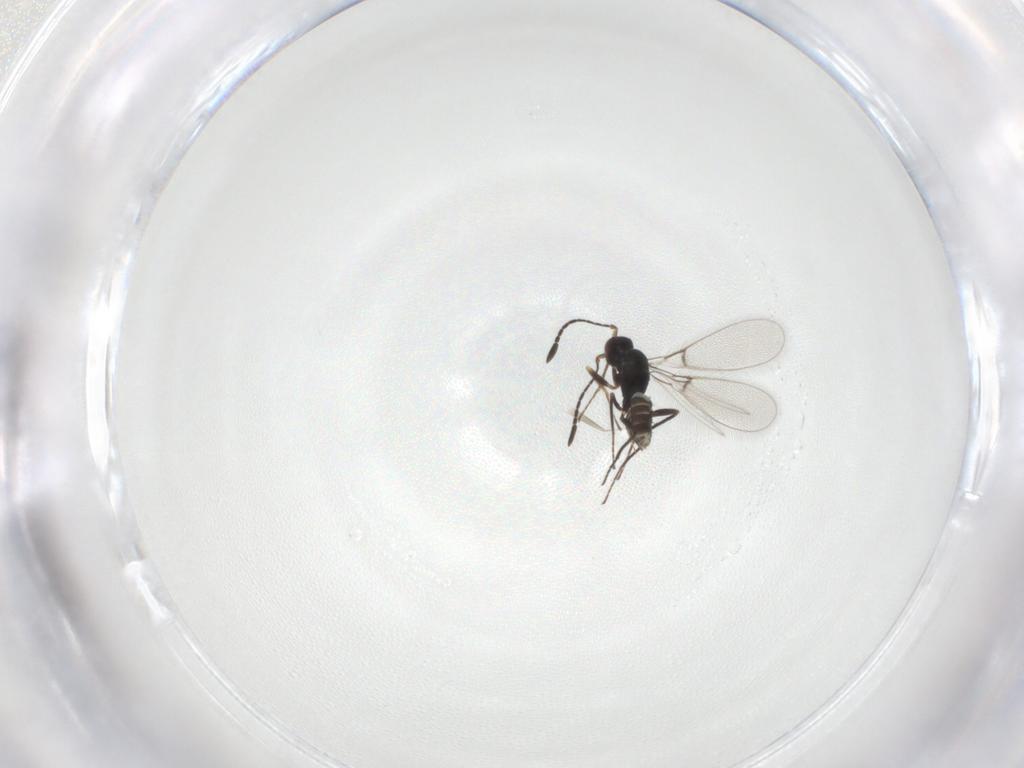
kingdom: Animalia
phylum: Arthropoda
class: Insecta
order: Hymenoptera
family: Mymaridae
